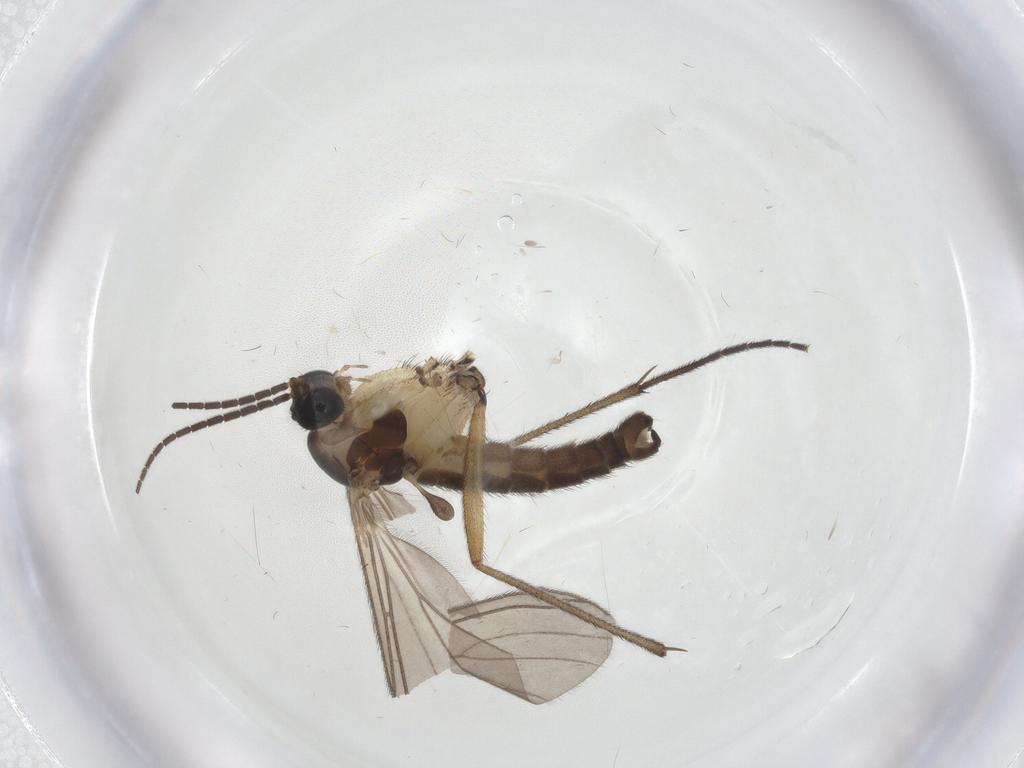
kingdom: Animalia
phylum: Arthropoda
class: Insecta
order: Diptera
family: Sciaridae
